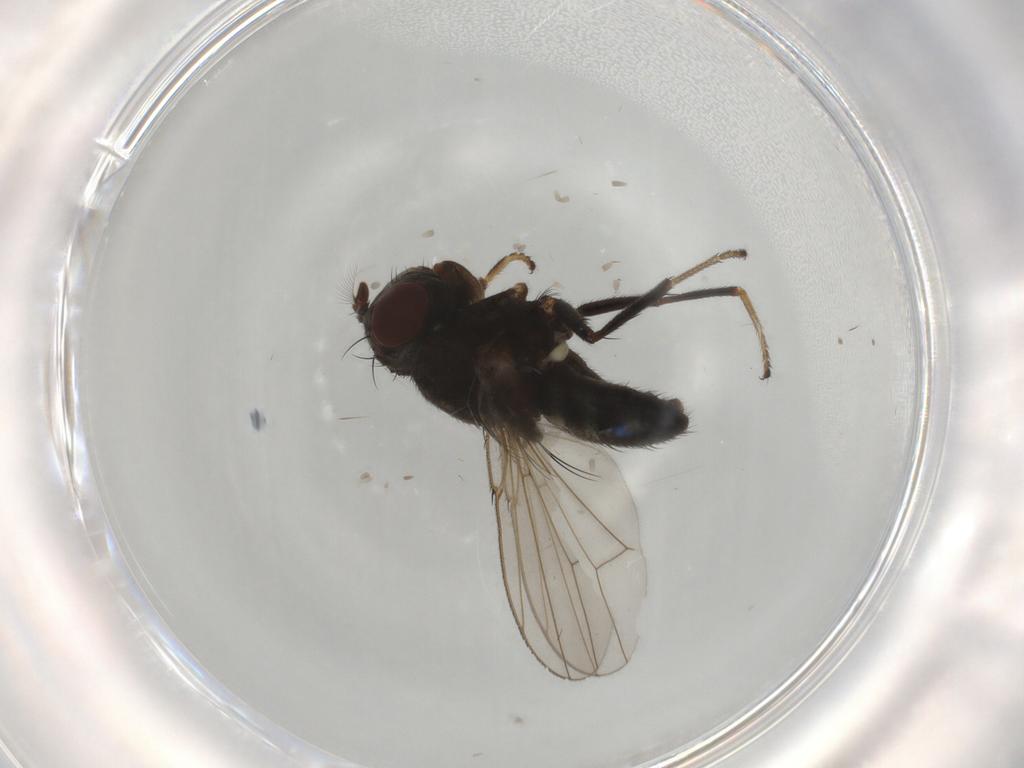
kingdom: Animalia
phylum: Arthropoda
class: Insecta
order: Diptera
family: Ephydridae
